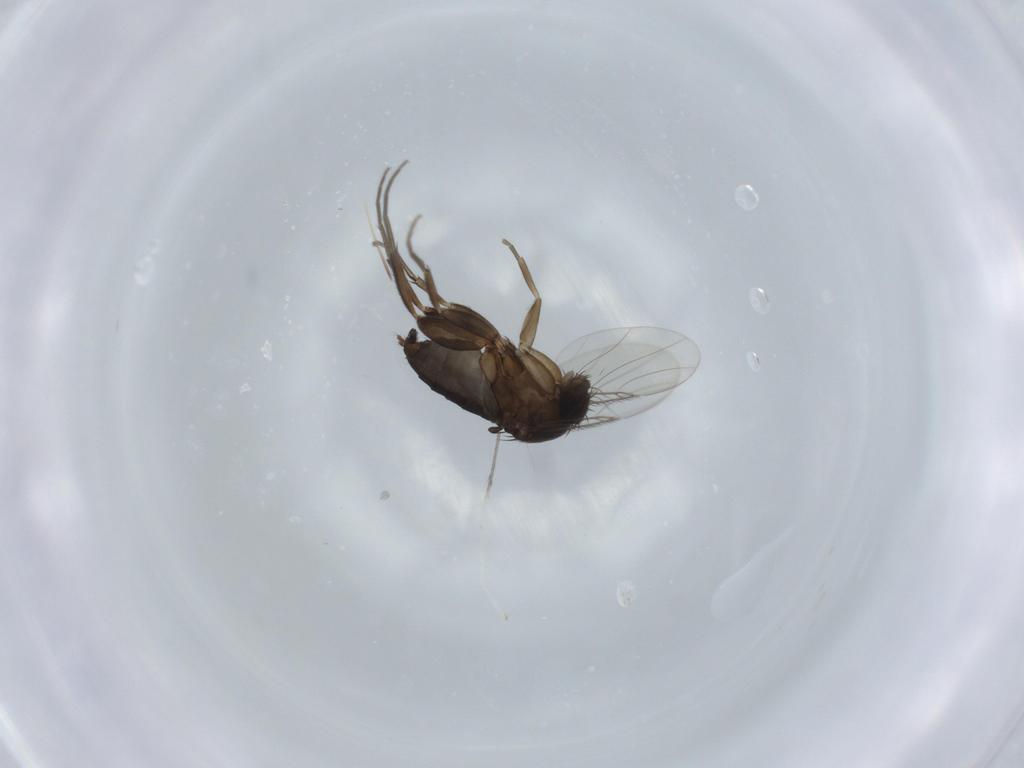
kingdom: Animalia
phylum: Arthropoda
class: Insecta
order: Diptera
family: Phoridae
